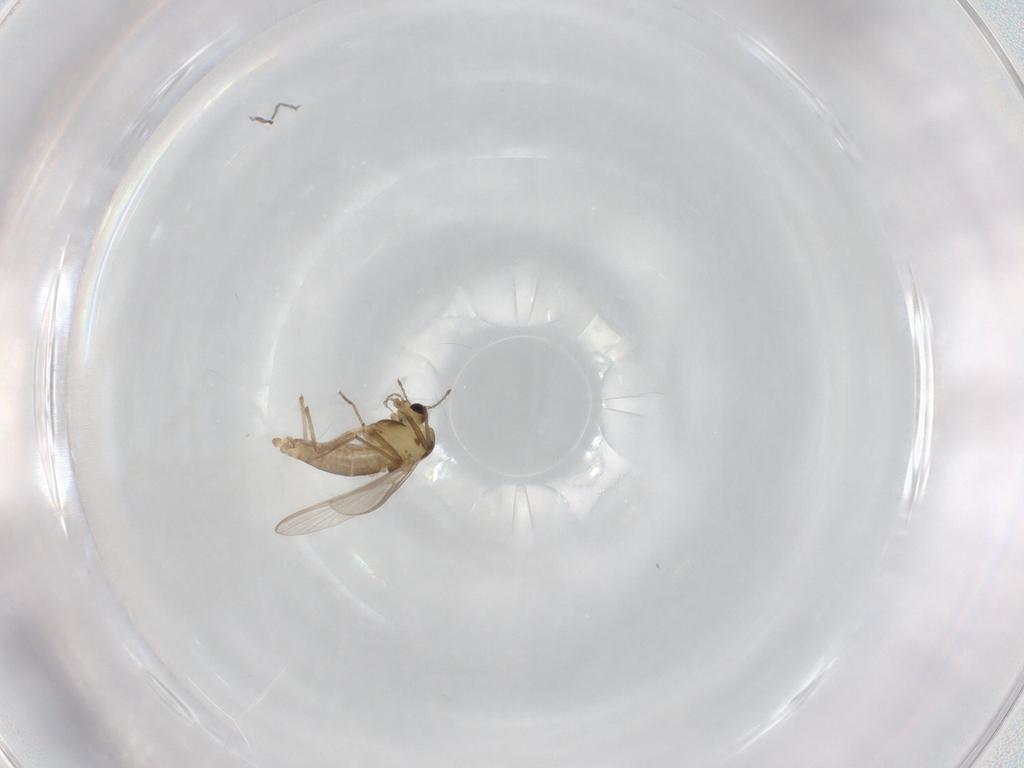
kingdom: Animalia
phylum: Arthropoda
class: Insecta
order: Diptera
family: Chironomidae
